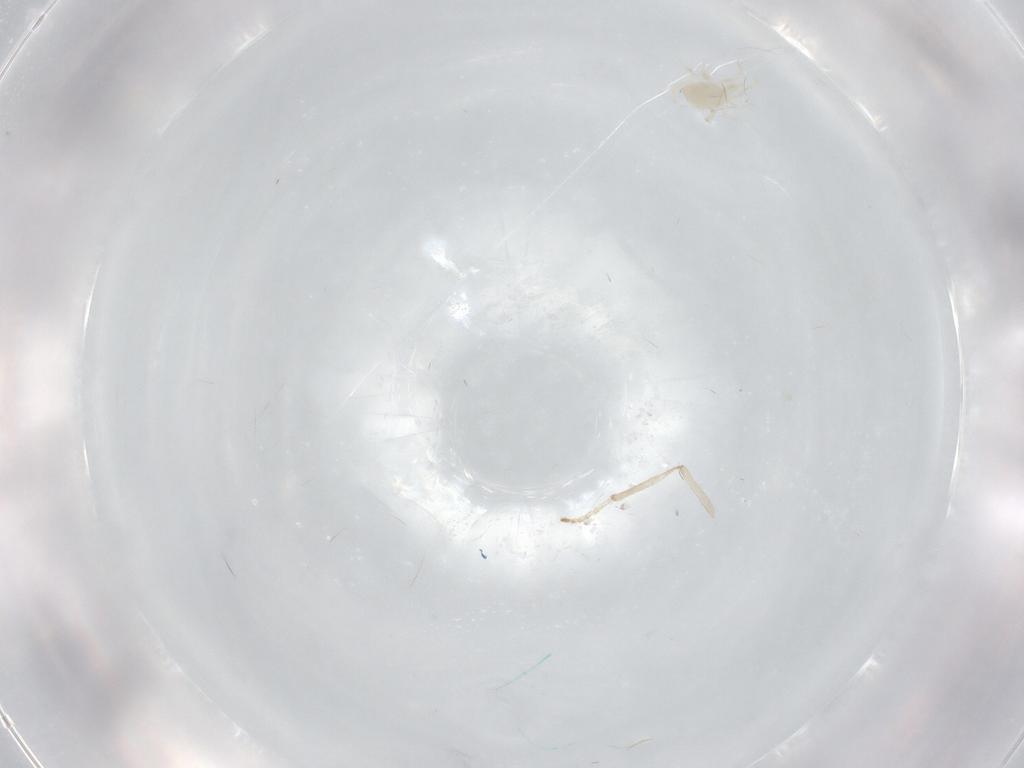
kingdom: Animalia
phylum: Arthropoda
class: Arachnida
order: Mesostigmata
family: Blattisociidae
